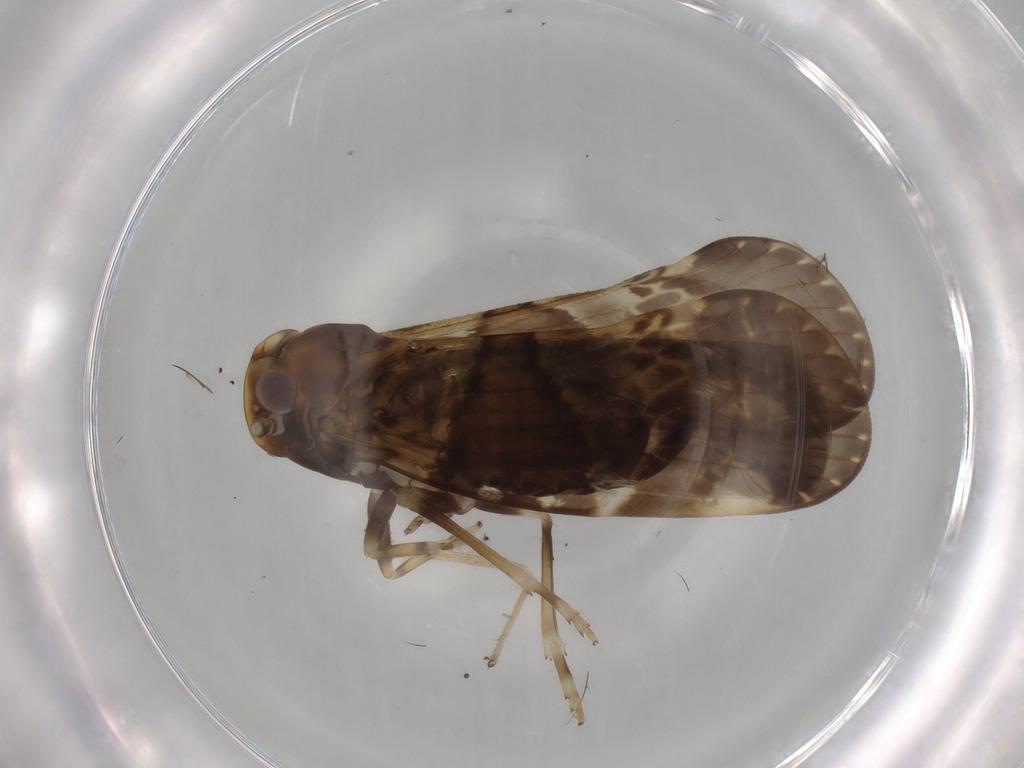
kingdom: Animalia
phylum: Arthropoda
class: Insecta
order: Diptera
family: Chironomidae
